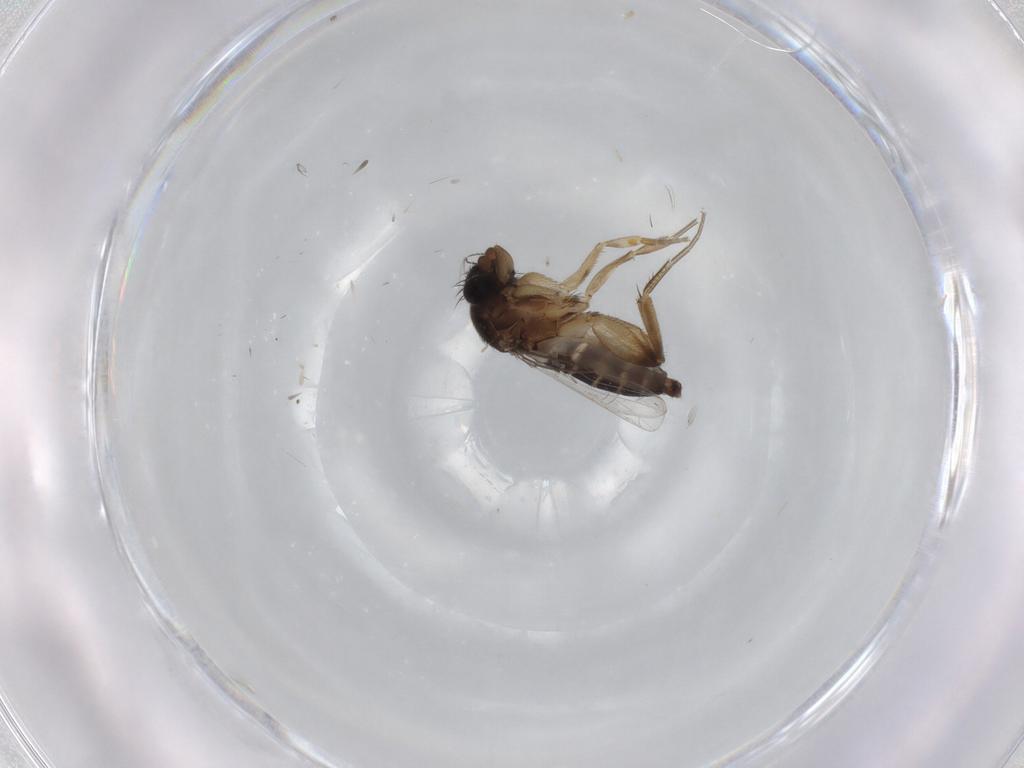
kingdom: Animalia
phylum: Arthropoda
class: Insecta
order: Diptera
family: Phoridae
